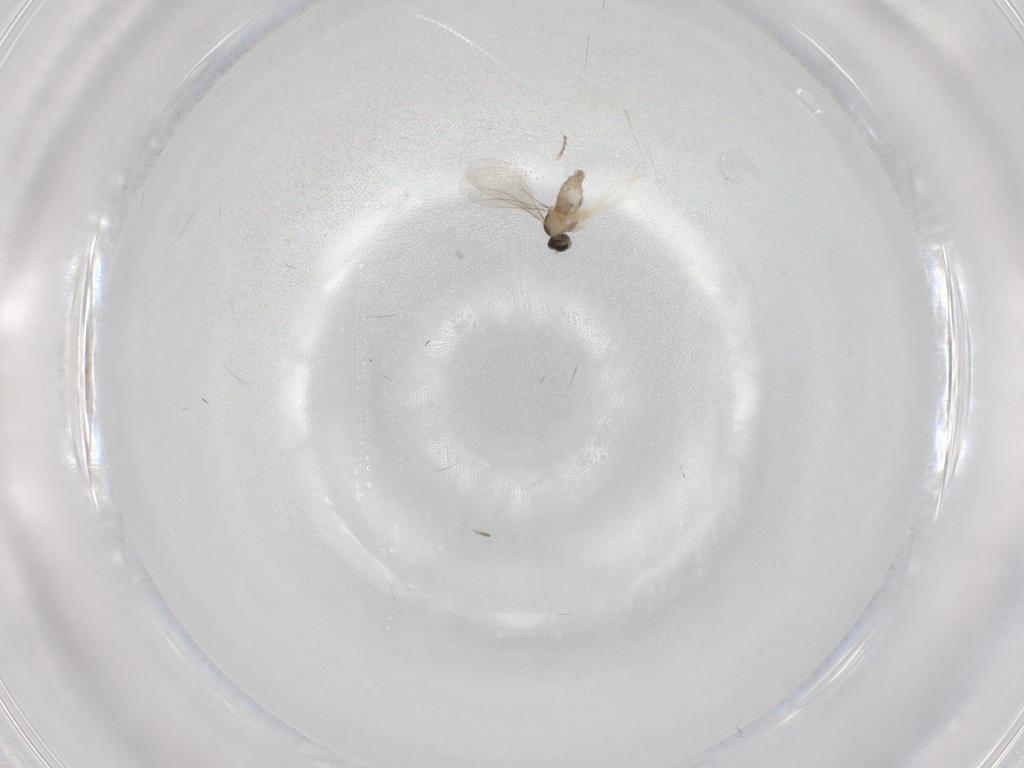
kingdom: Animalia
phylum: Arthropoda
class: Insecta
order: Diptera
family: Cecidomyiidae
